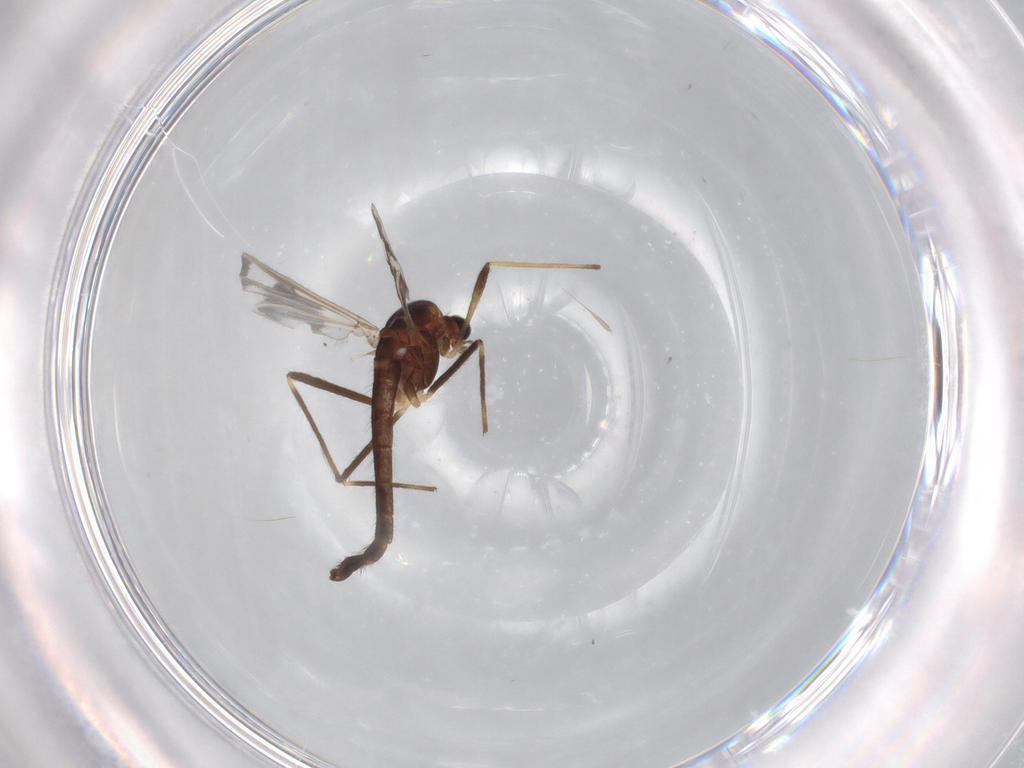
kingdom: Animalia
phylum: Arthropoda
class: Insecta
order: Diptera
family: Chironomidae
